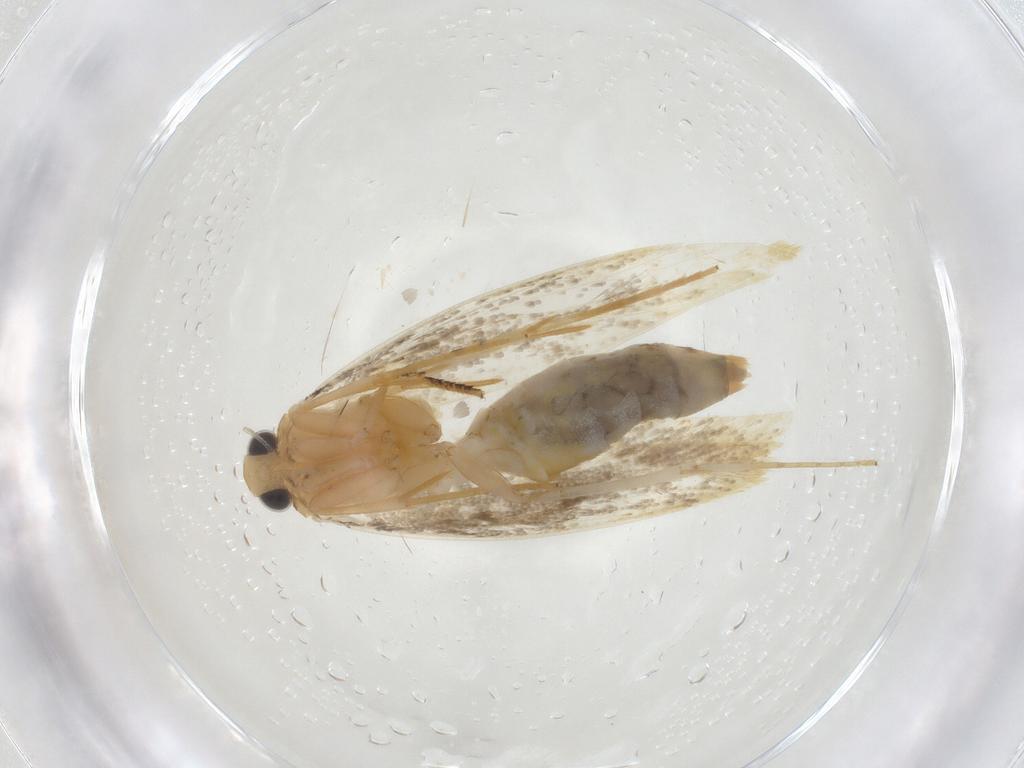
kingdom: Animalia
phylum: Arthropoda
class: Insecta
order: Lepidoptera
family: Tineidae
